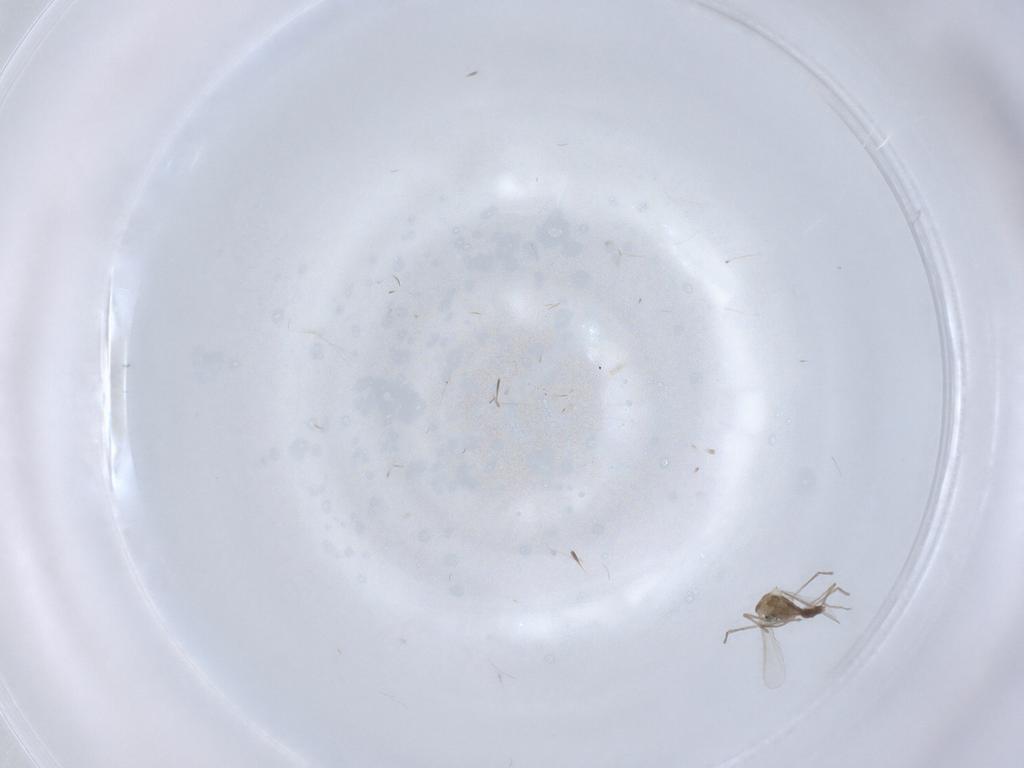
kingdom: Animalia
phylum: Arthropoda
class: Insecta
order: Diptera
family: Chironomidae
